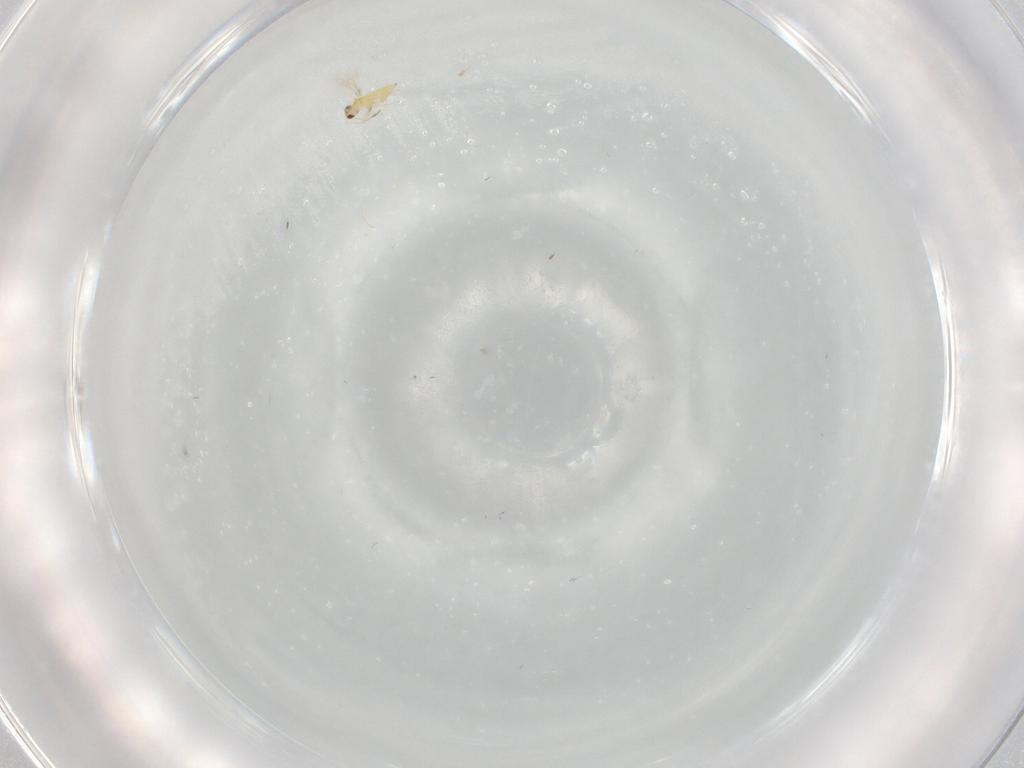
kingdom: Animalia
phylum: Arthropoda
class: Insecta
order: Hymenoptera
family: Mymaridae
